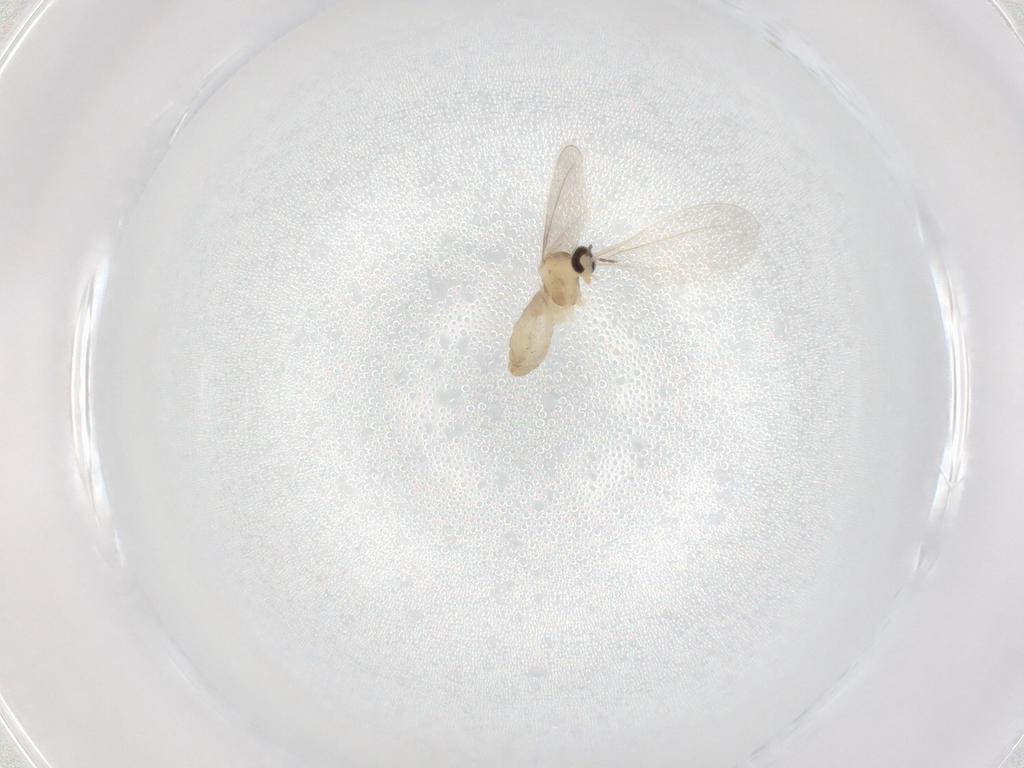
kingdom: Animalia
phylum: Arthropoda
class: Insecta
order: Diptera
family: Cecidomyiidae
